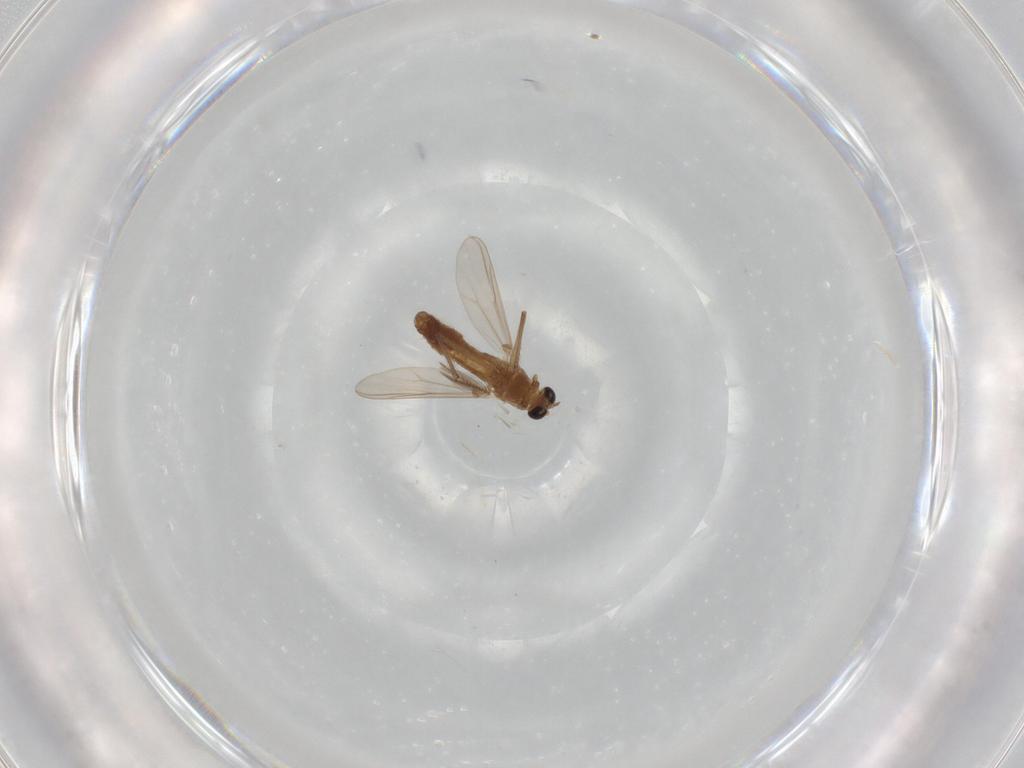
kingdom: Animalia
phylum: Arthropoda
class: Insecta
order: Diptera
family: Chironomidae
